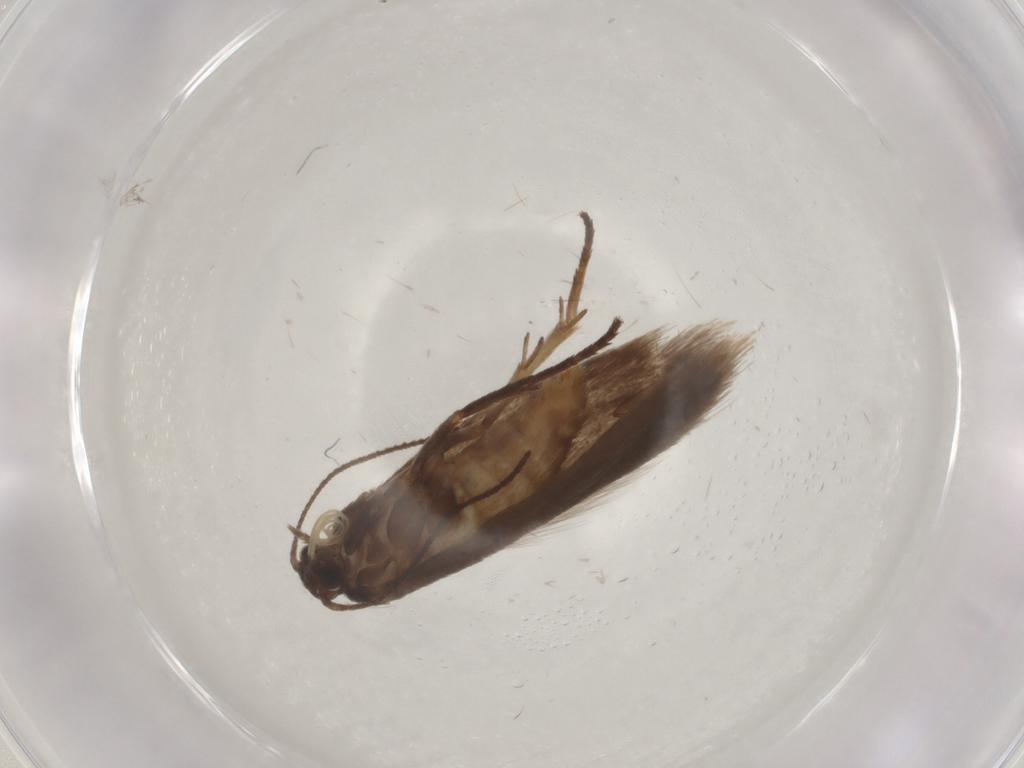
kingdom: Animalia
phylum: Arthropoda
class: Insecta
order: Lepidoptera
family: Limacodidae
